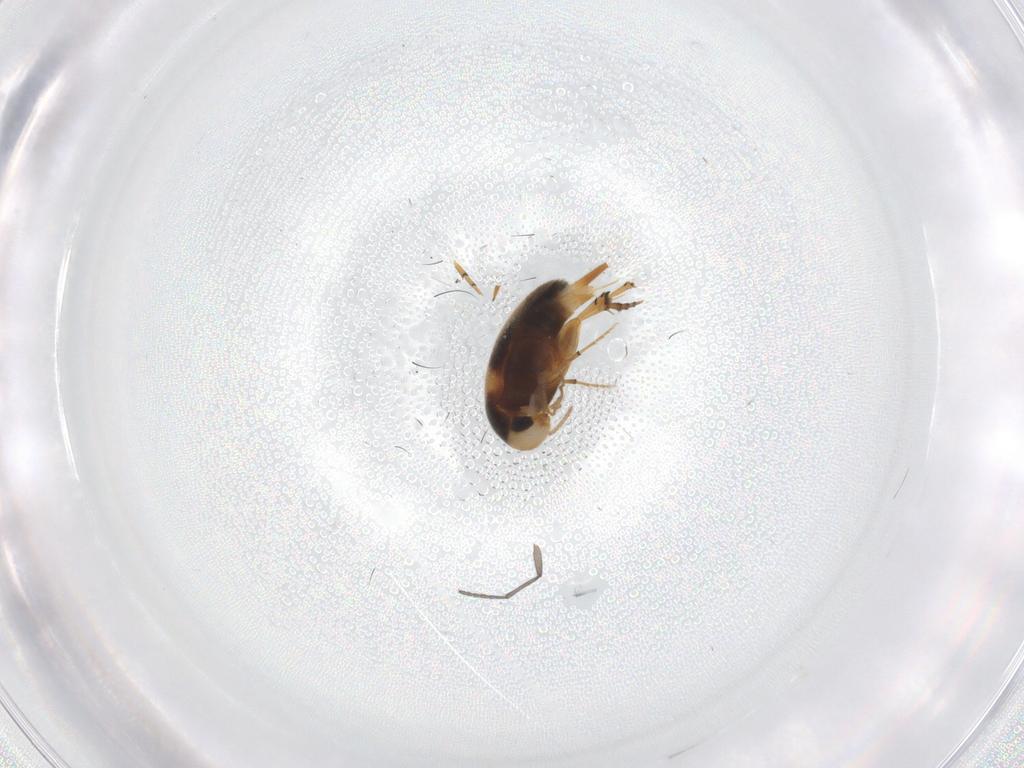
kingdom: Animalia
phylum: Arthropoda
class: Insecta
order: Coleoptera
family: Mordellidae
